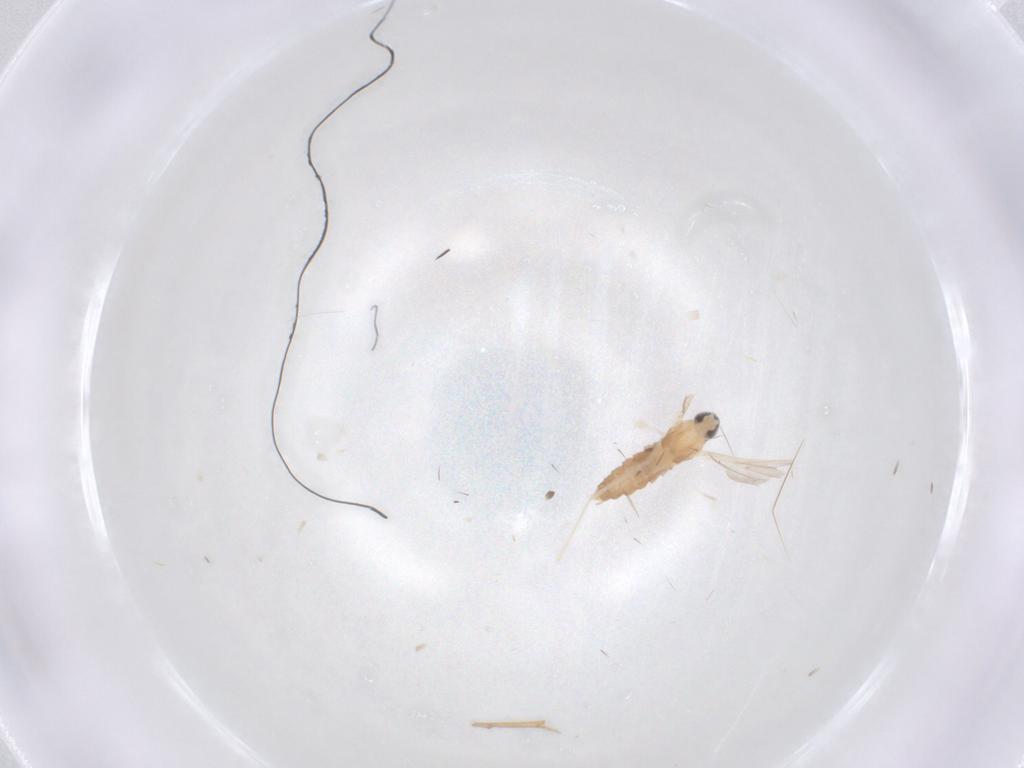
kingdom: Animalia
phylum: Arthropoda
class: Insecta
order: Diptera
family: Cecidomyiidae
